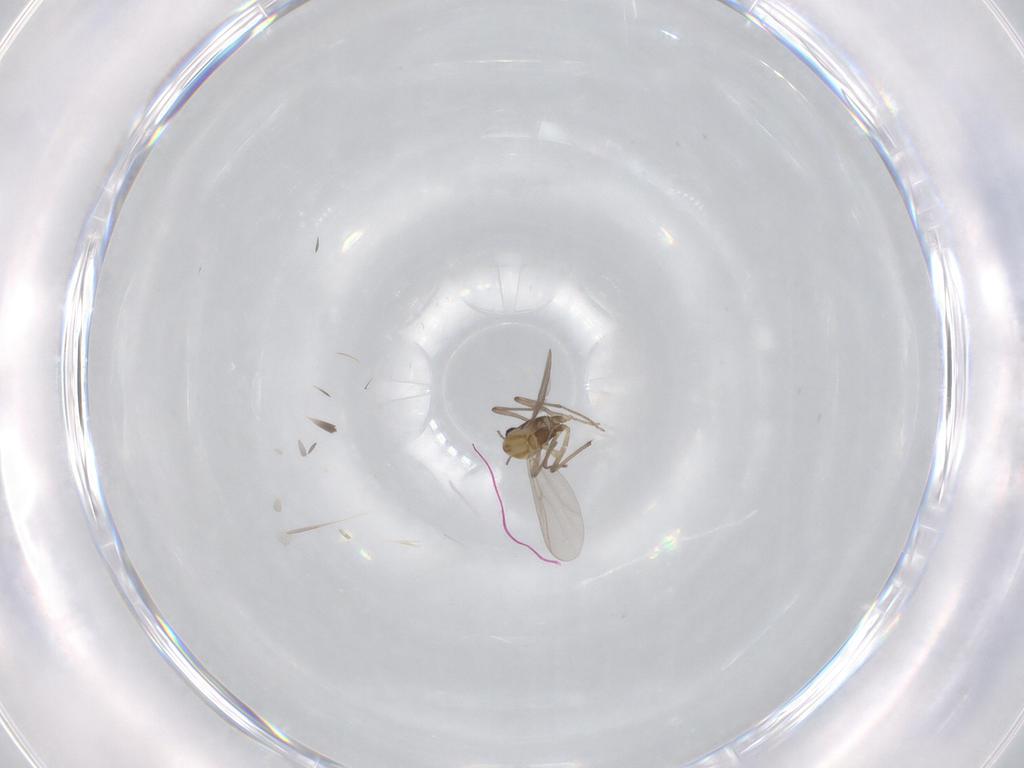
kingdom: Animalia
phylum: Arthropoda
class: Insecta
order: Diptera
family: Chironomidae
